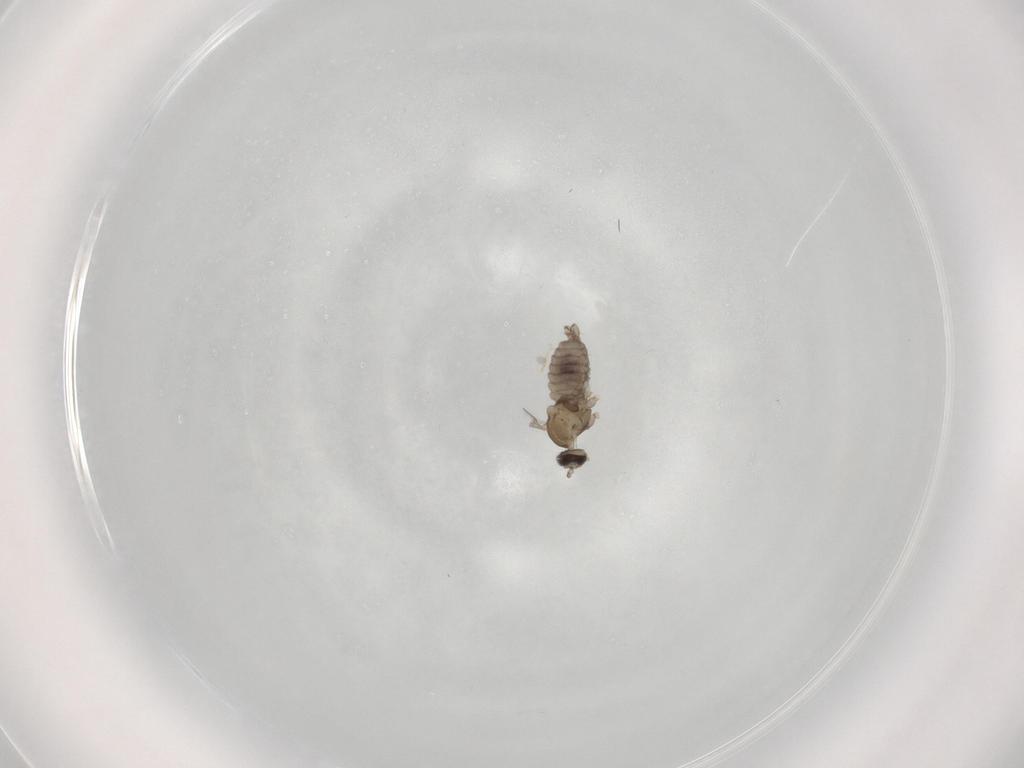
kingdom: Animalia
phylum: Arthropoda
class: Insecta
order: Diptera
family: Cecidomyiidae
